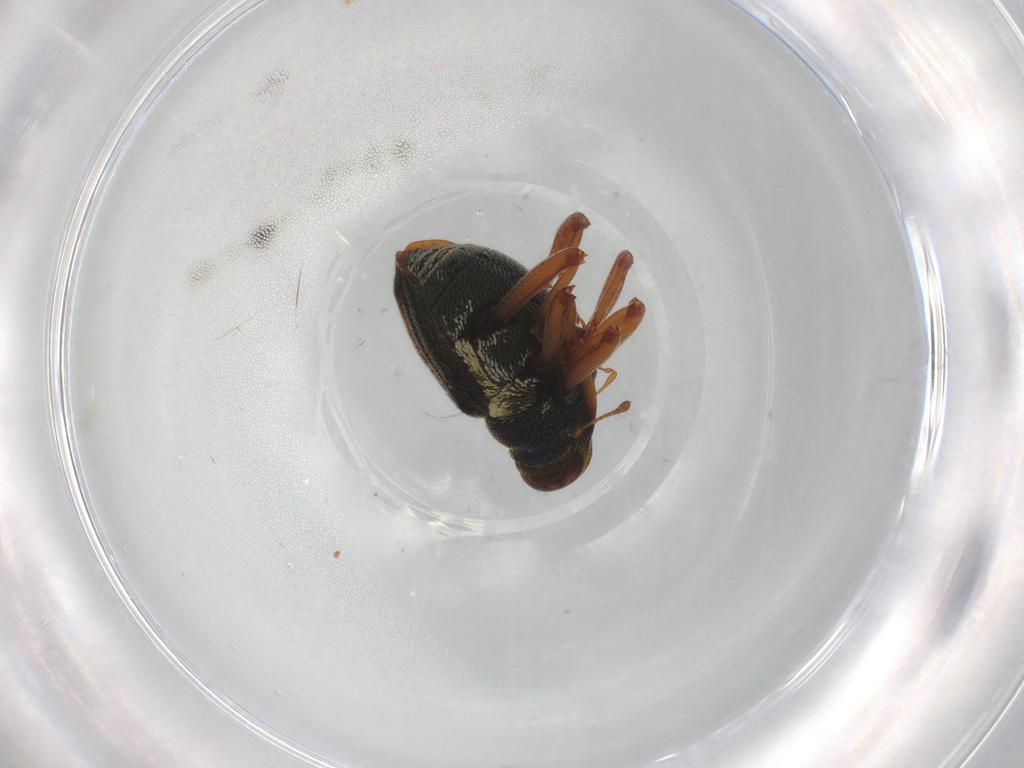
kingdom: Animalia
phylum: Arthropoda
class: Insecta
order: Coleoptera
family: Curculionidae
